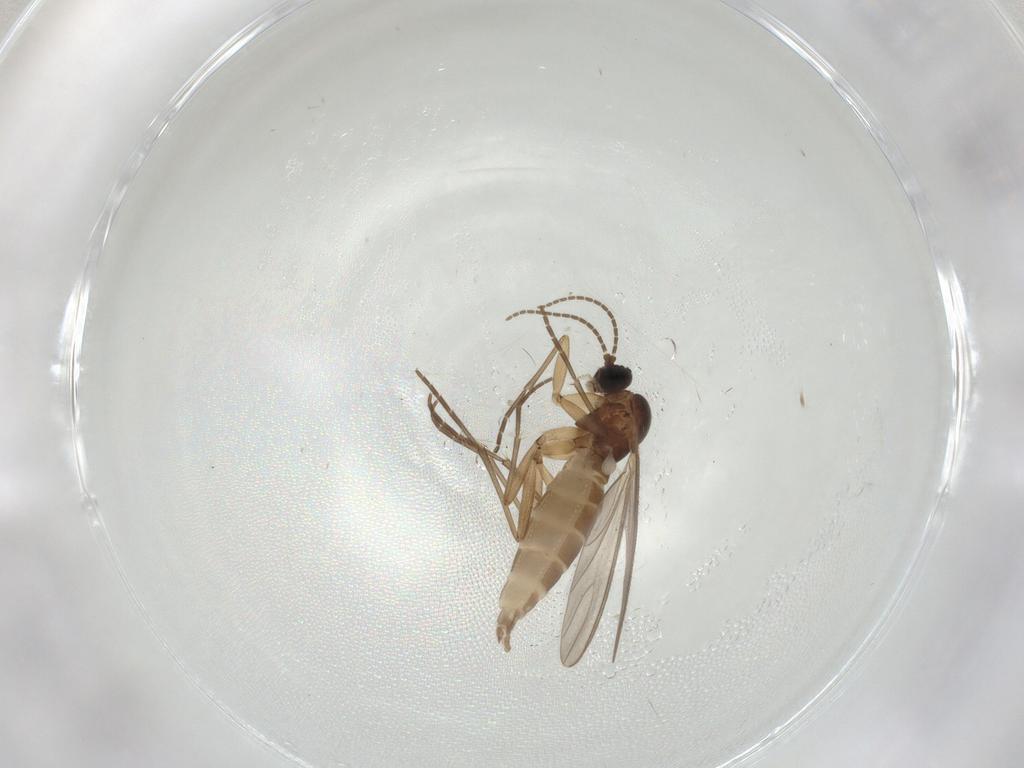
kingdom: Animalia
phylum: Arthropoda
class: Insecta
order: Diptera
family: Sciaridae
